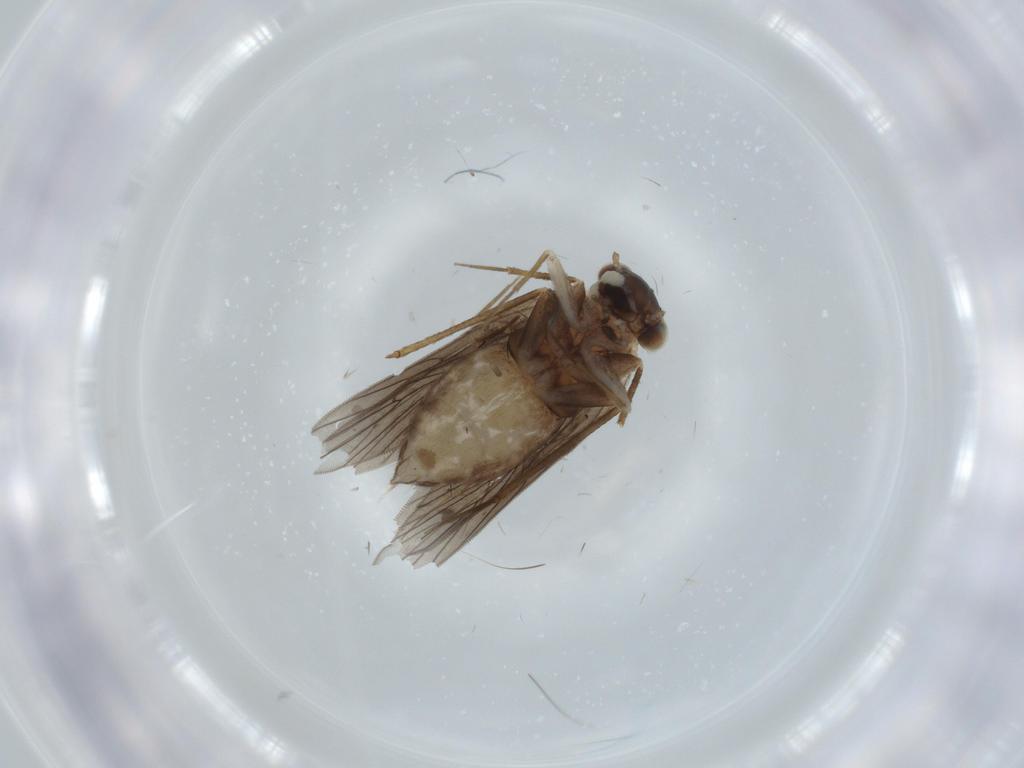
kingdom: Animalia
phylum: Arthropoda
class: Insecta
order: Psocodea
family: Lepidopsocidae
